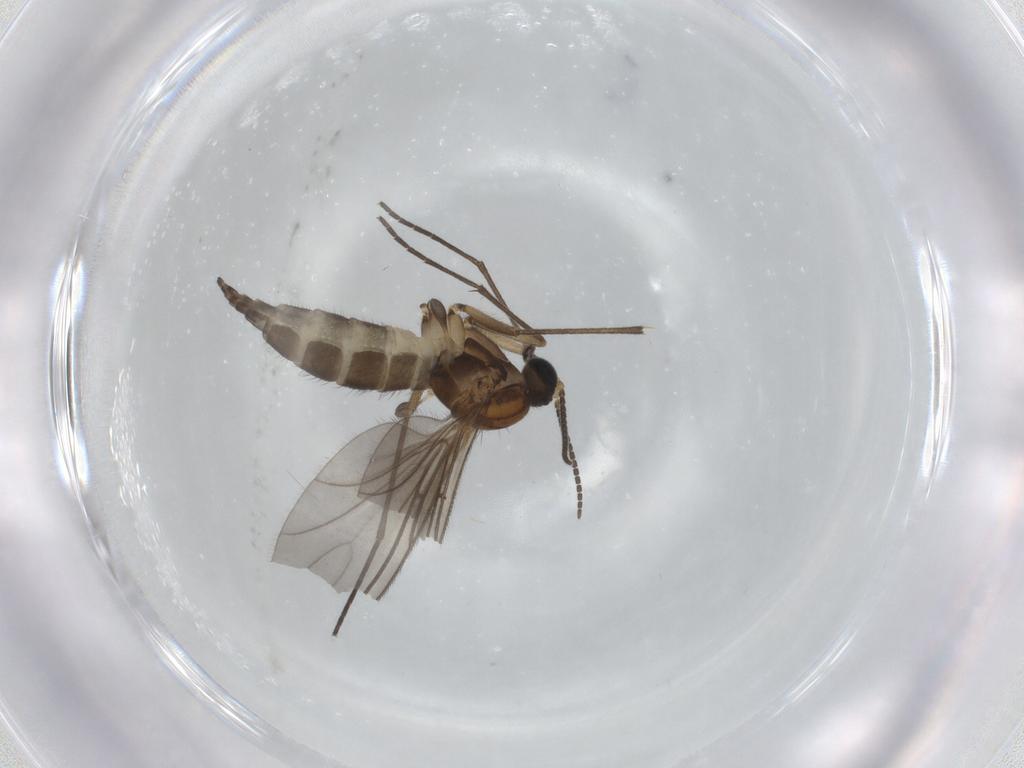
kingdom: Animalia
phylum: Arthropoda
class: Insecta
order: Diptera
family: Sciaridae
